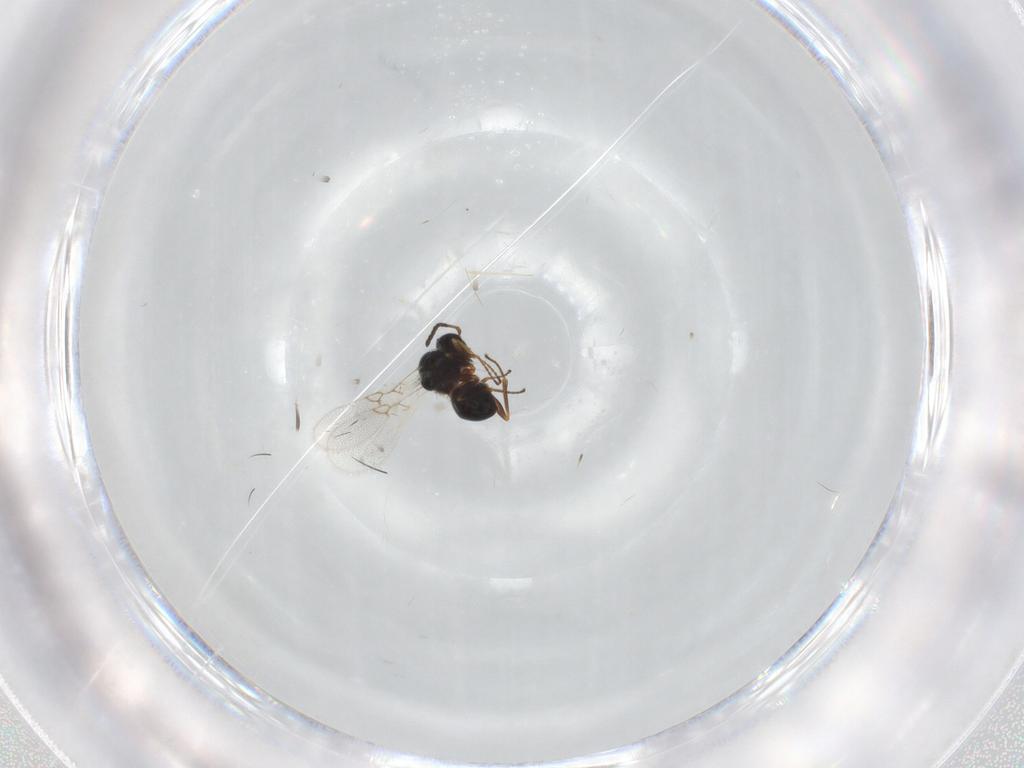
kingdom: Animalia
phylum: Arthropoda
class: Insecta
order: Hymenoptera
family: Figitidae
